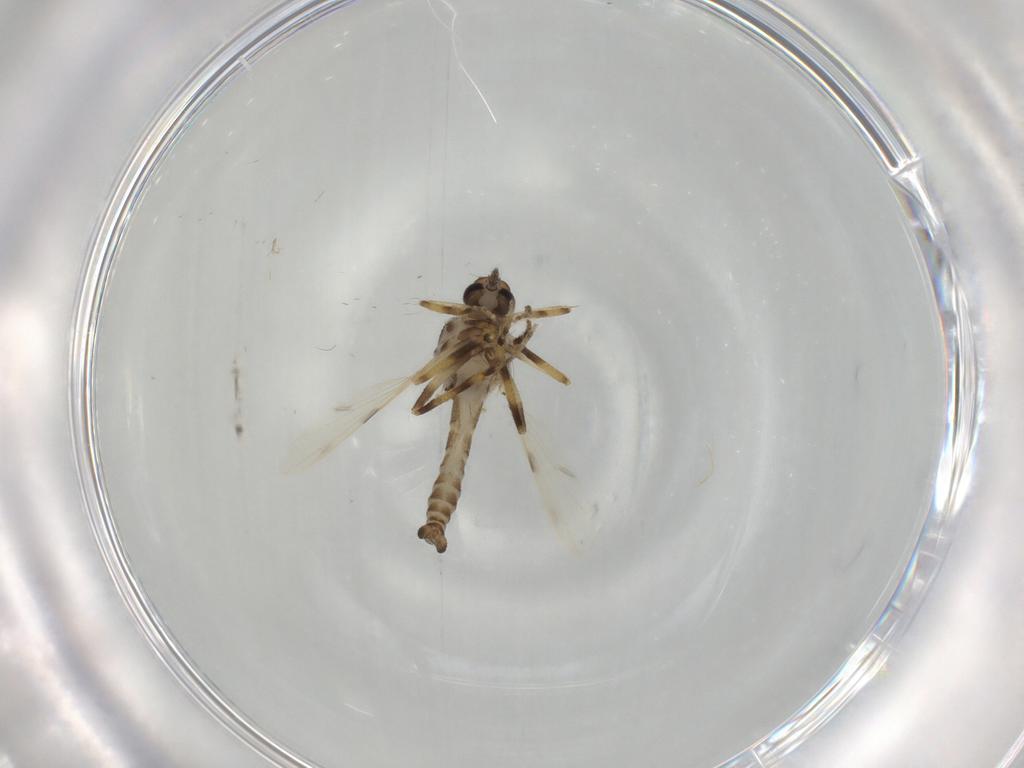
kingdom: Animalia
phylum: Arthropoda
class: Insecta
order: Diptera
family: Ceratopogonidae
